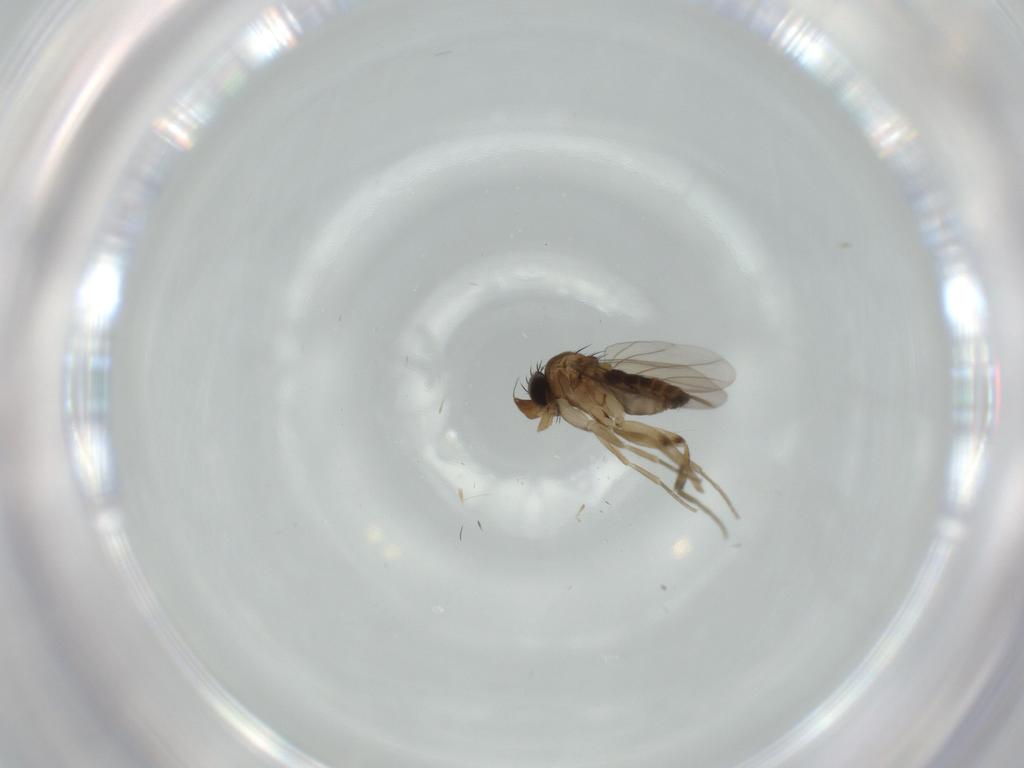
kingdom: Animalia
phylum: Arthropoda
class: Insecta
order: Diptera
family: Phoridae
